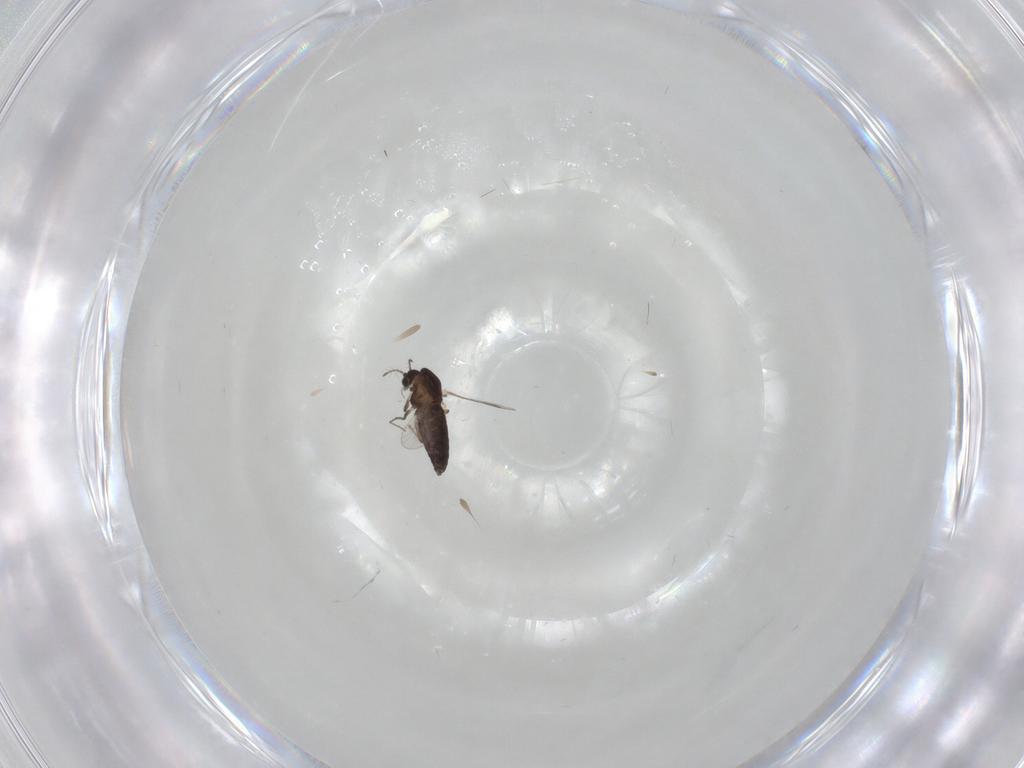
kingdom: Animalia
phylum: Arthropoda
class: Insecta
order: Diptera
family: Chironomidae
